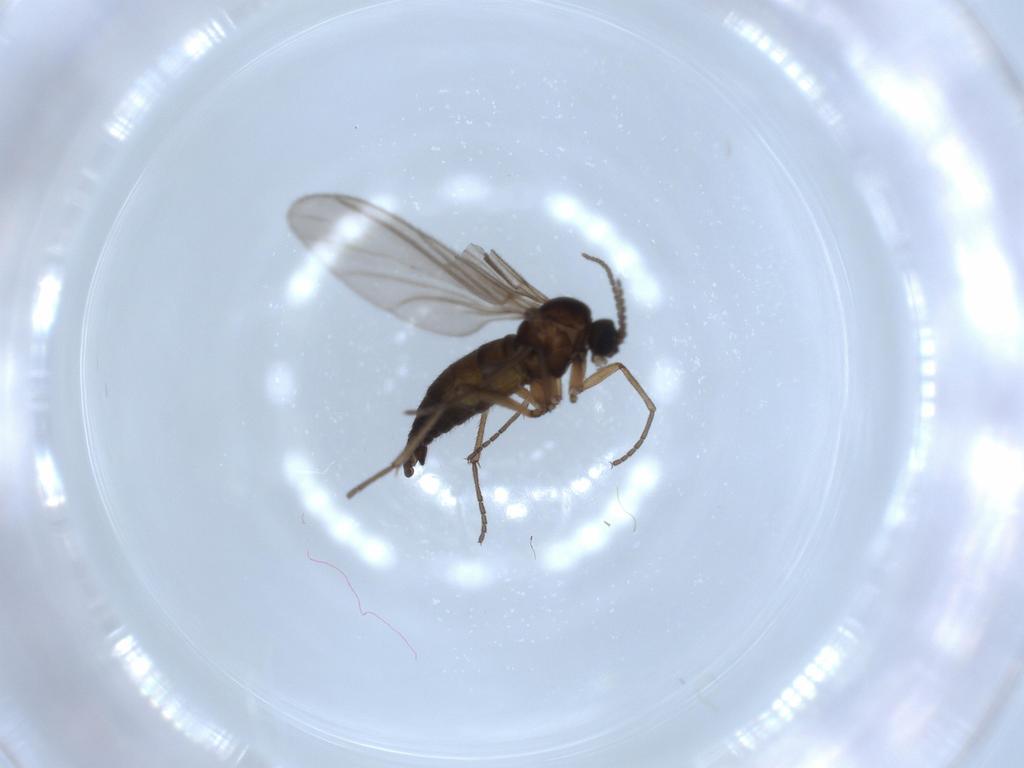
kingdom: Animalia
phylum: Arthropoda
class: Insecta
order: Diptera
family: Sciaridae
